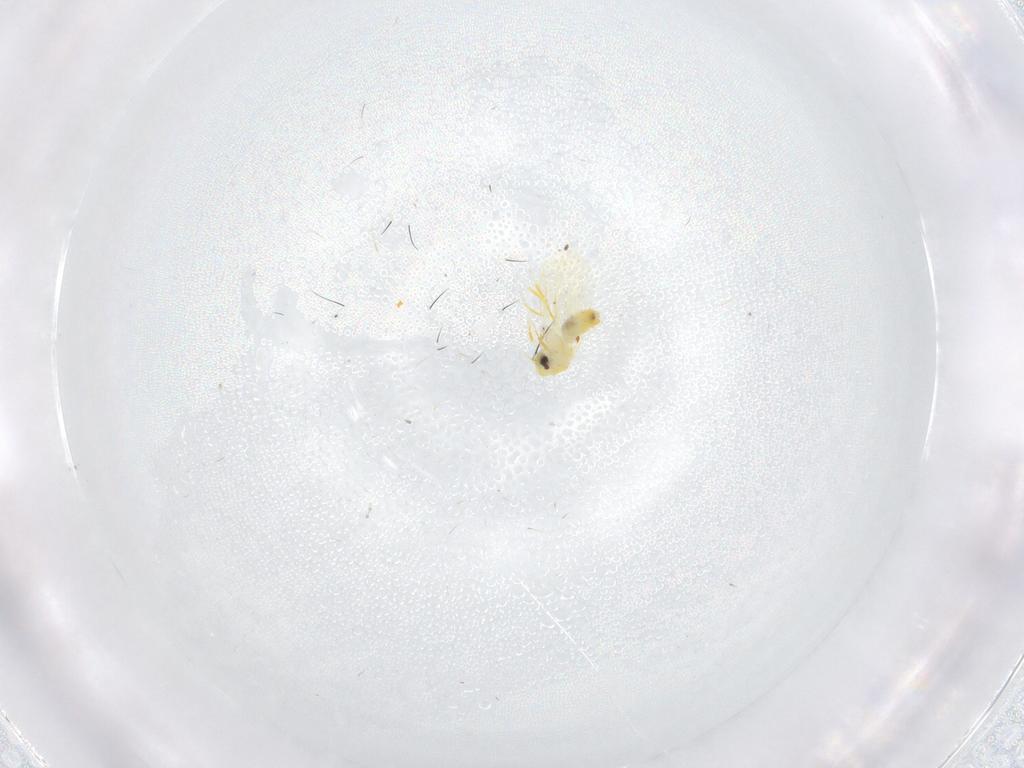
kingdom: Animalia
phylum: Arthropoda
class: Insecta
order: Hemiptera
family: Aleyrodidae
